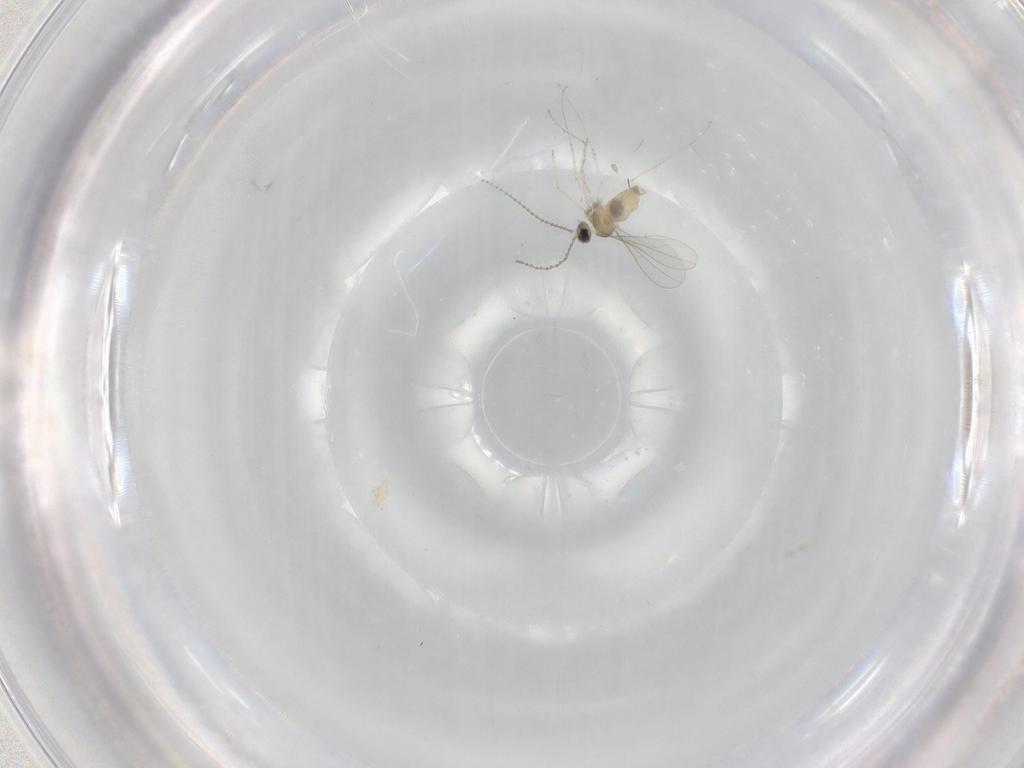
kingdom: Animalia
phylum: Arthropoda
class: Insecta
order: Diptera
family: Cecidomyiidae
